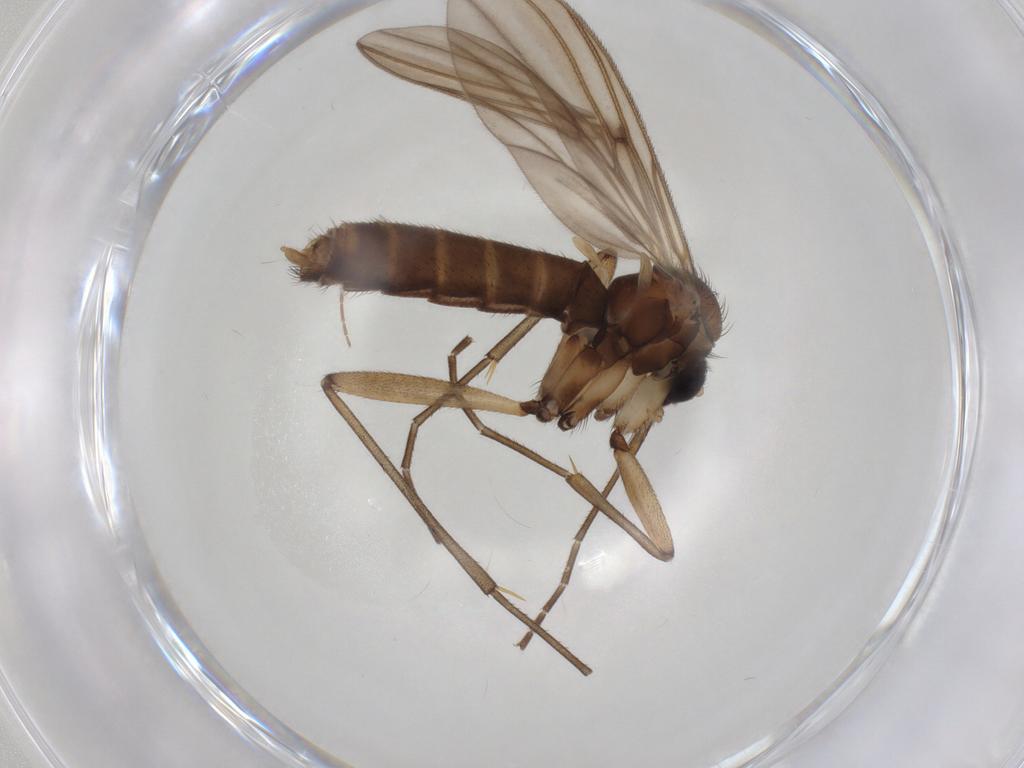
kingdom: Animalia
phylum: Arthropoda
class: Insecta
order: Diptera
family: Mycetophilidae
